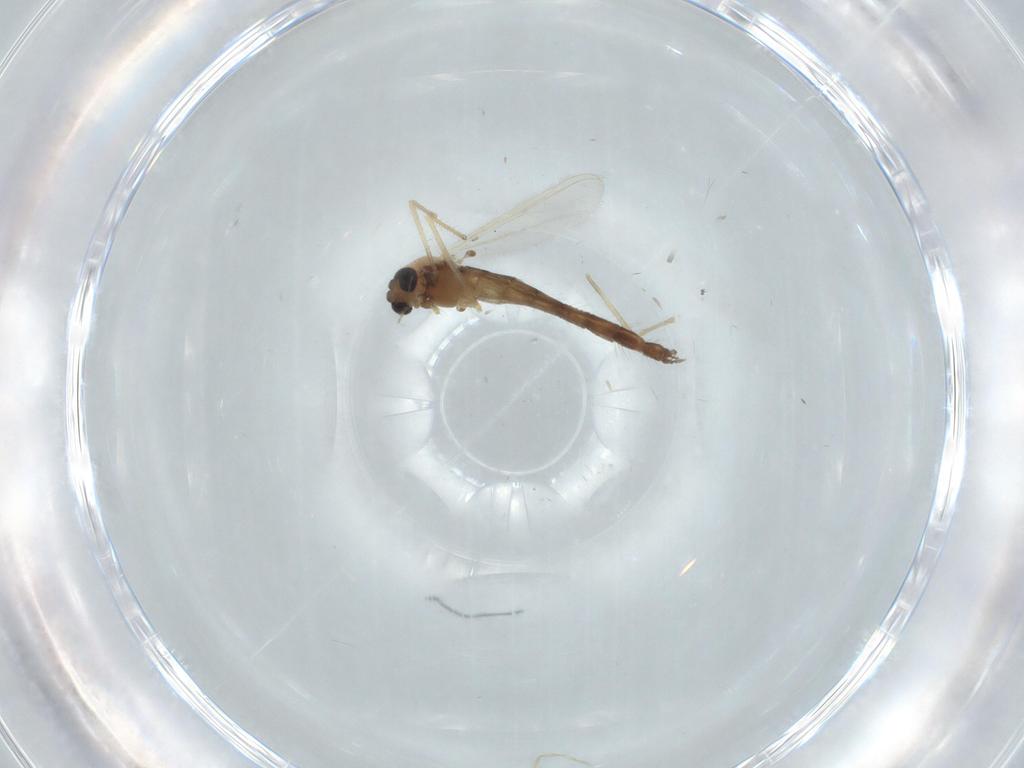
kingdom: Animalia
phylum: Arthropoda
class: Insecta
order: Diptera
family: Chironomidae
